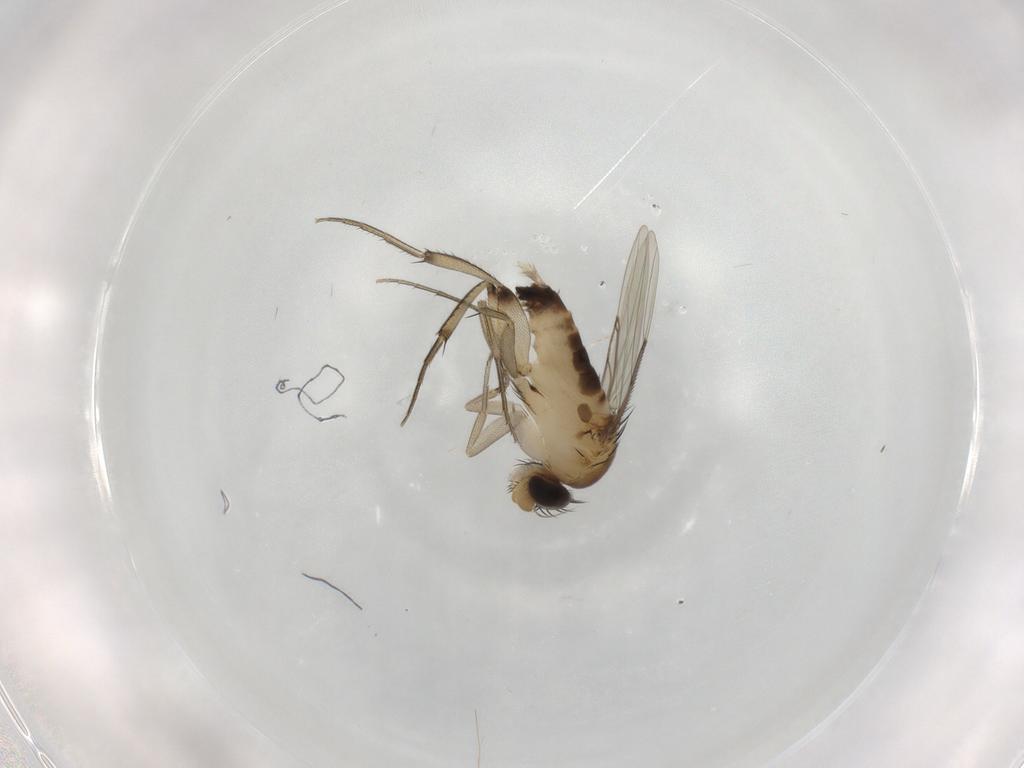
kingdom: Animalia
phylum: Arthropoda
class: Insecta
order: Diptera
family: Phoridae
